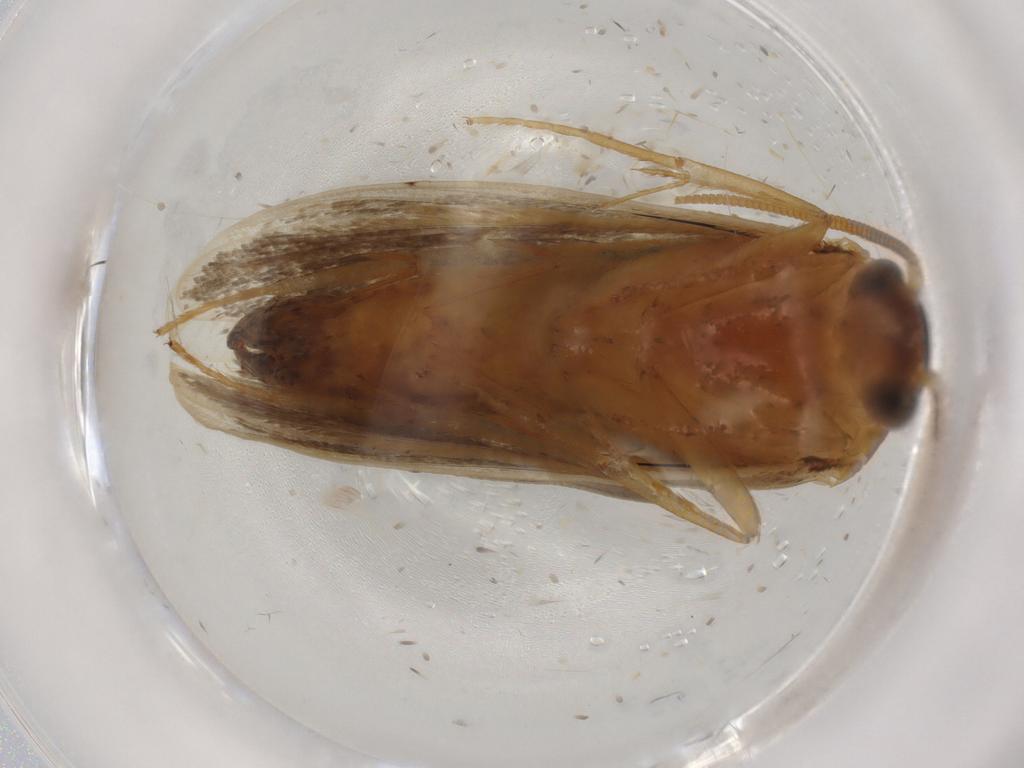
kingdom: Animalia
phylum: Arthropoda
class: Insecta
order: Lepidoptera
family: Tineidae
